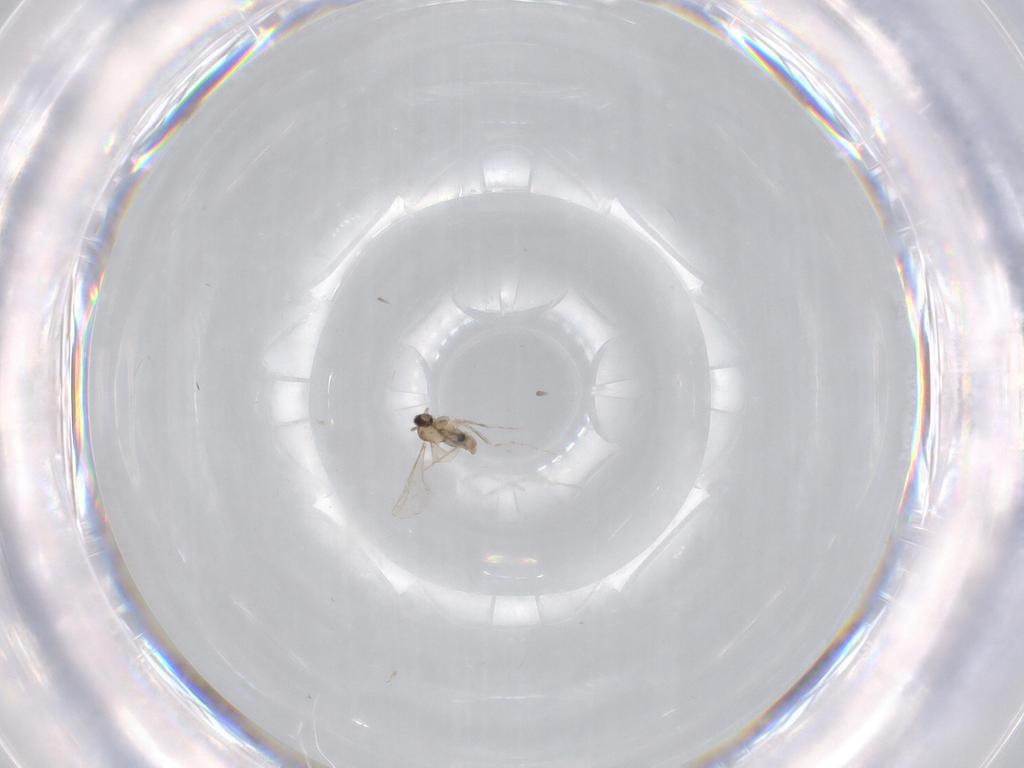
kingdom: Animalia
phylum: Arthropoda
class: Insecta
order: Diptera
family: Cecidomyiidae
